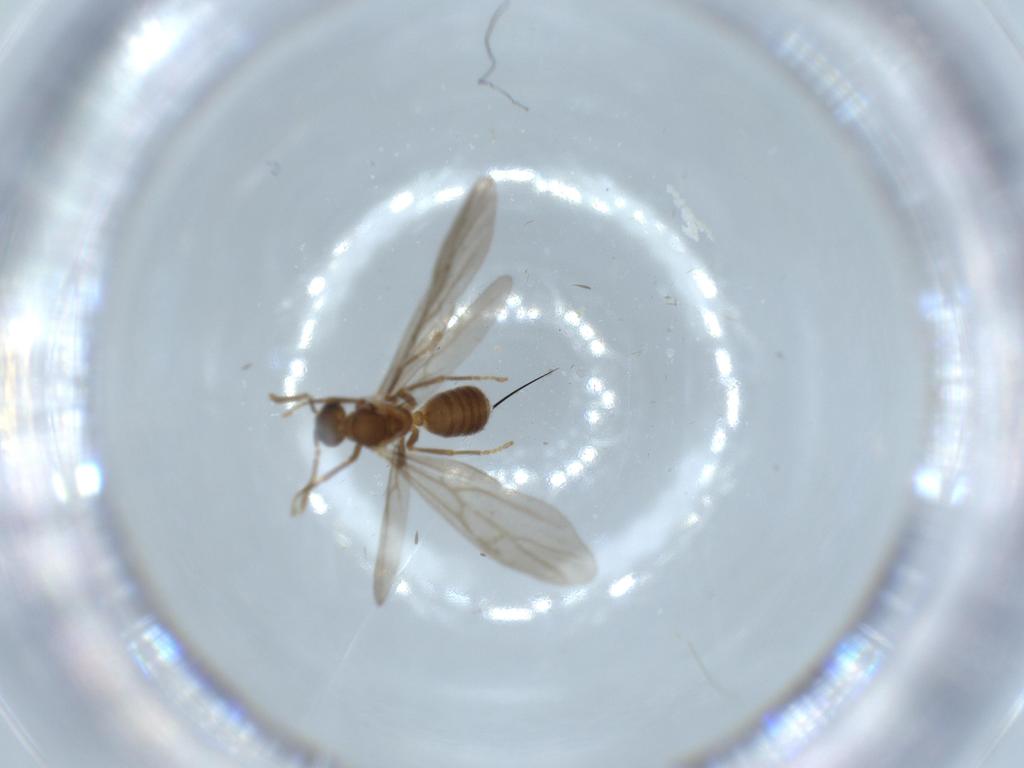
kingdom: Animalia
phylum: Arthropoda
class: Insecta
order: Hymenoptera
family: Formicidae
